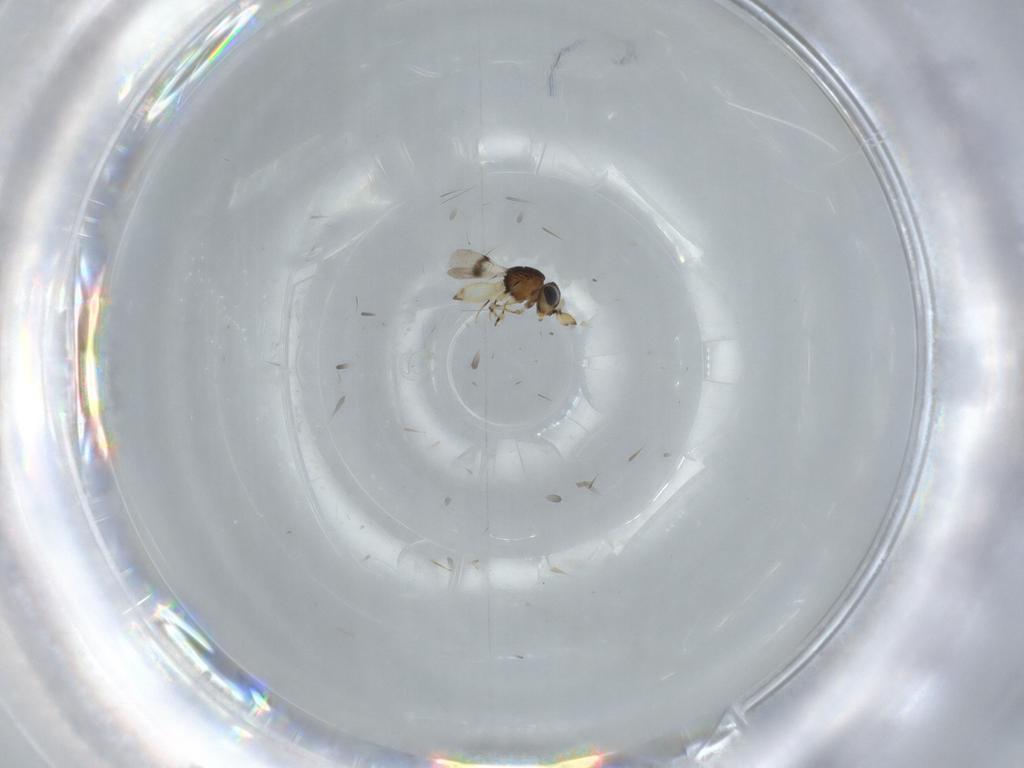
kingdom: Animalia
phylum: Arthropoda
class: Insecta
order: Hymenoptera
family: Scelionidae
